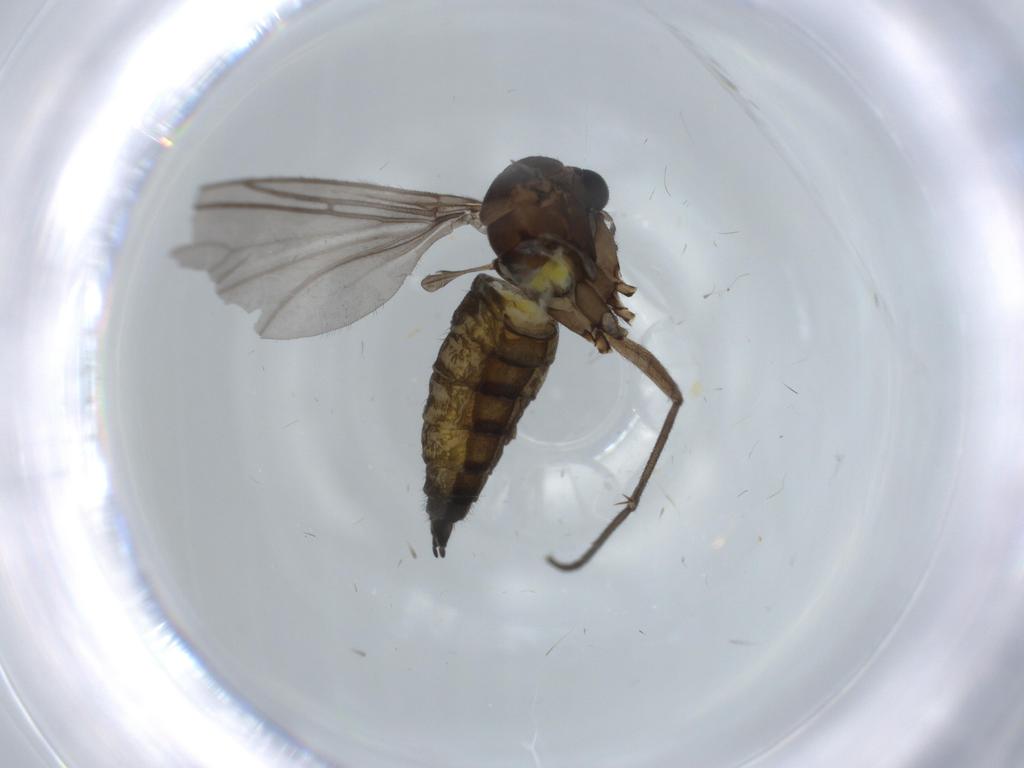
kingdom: Animalia
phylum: Arthropoda
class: Insecta
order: Diptera
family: Sciaridae
